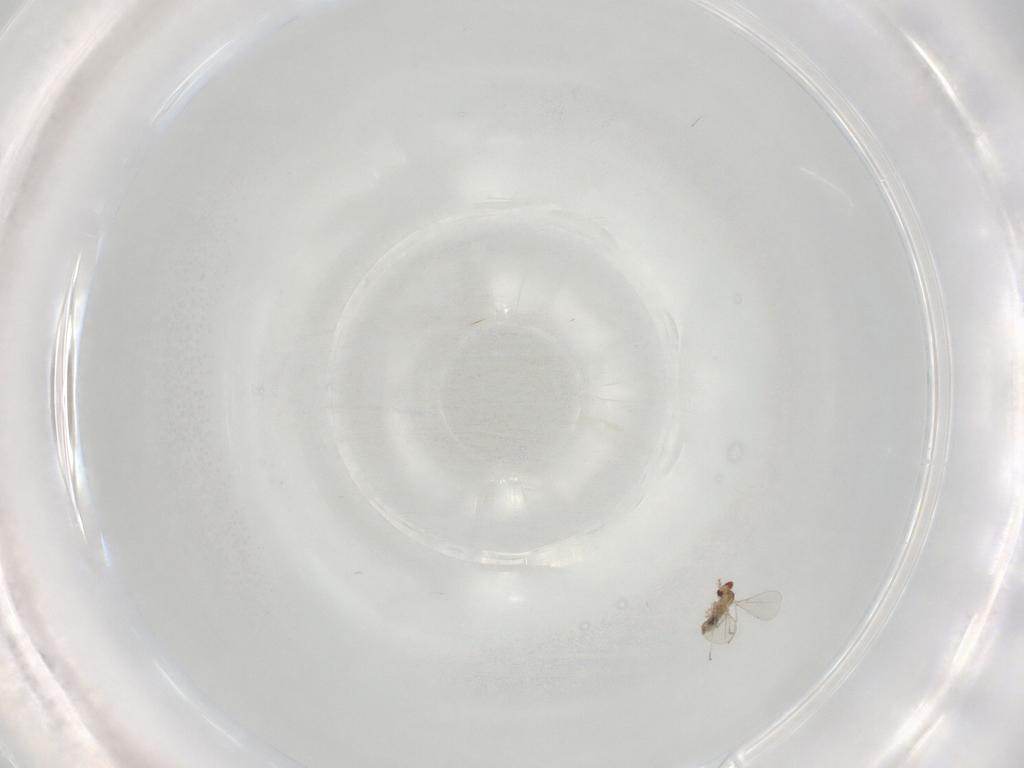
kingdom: Animalia
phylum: Arthropoda
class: Insecta
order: Diptera
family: Cecidomyiidae
